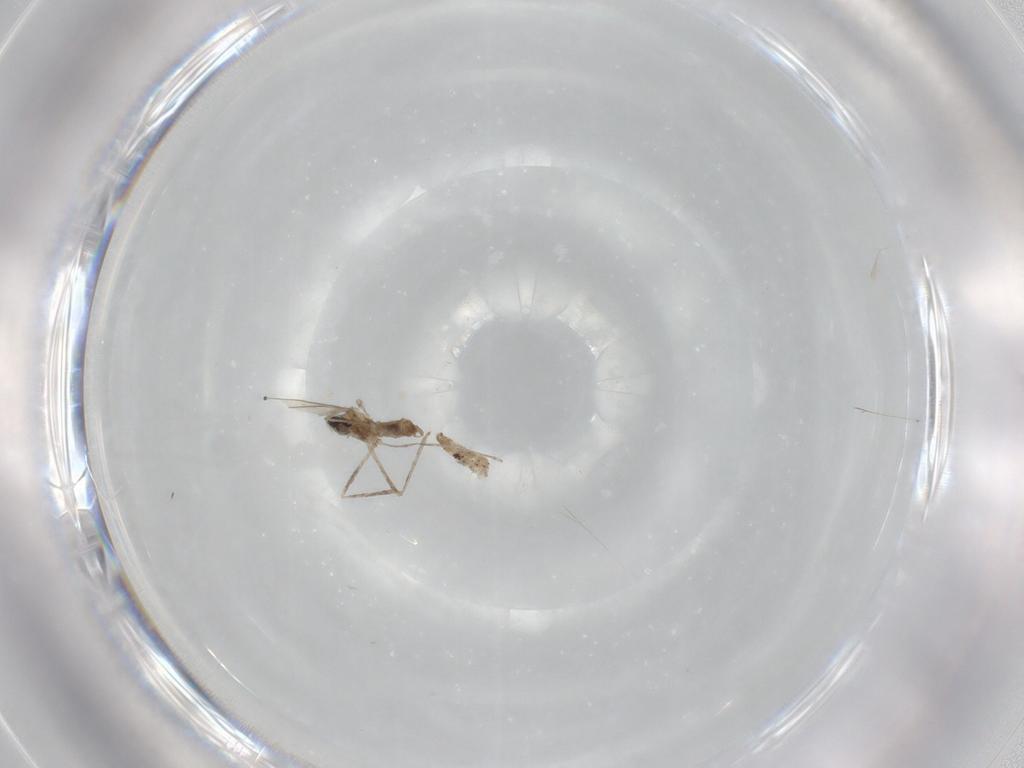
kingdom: Animalia
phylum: Arthropoda
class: Insecta
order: Diptera
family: Cecidomyiidae
